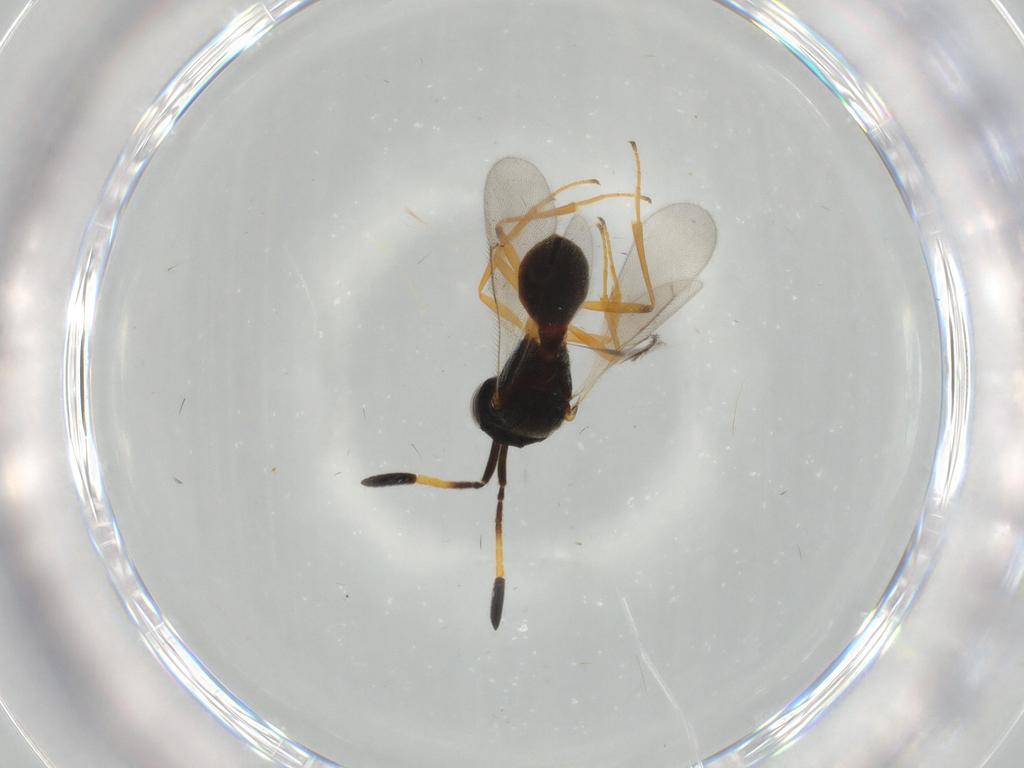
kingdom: Animalia
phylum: Arthropoda
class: Insecta
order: Hymenoptera
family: Scelionidae
